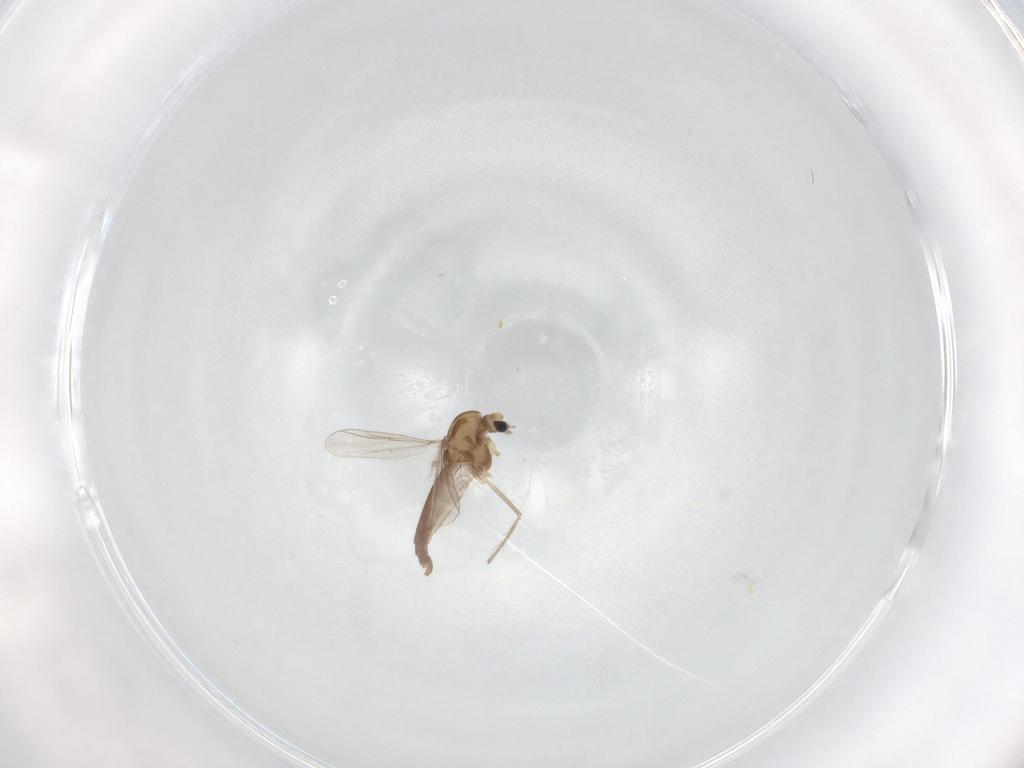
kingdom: Animalia
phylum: Arthropoda
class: Insecta
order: Diptera
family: Chironomidae
